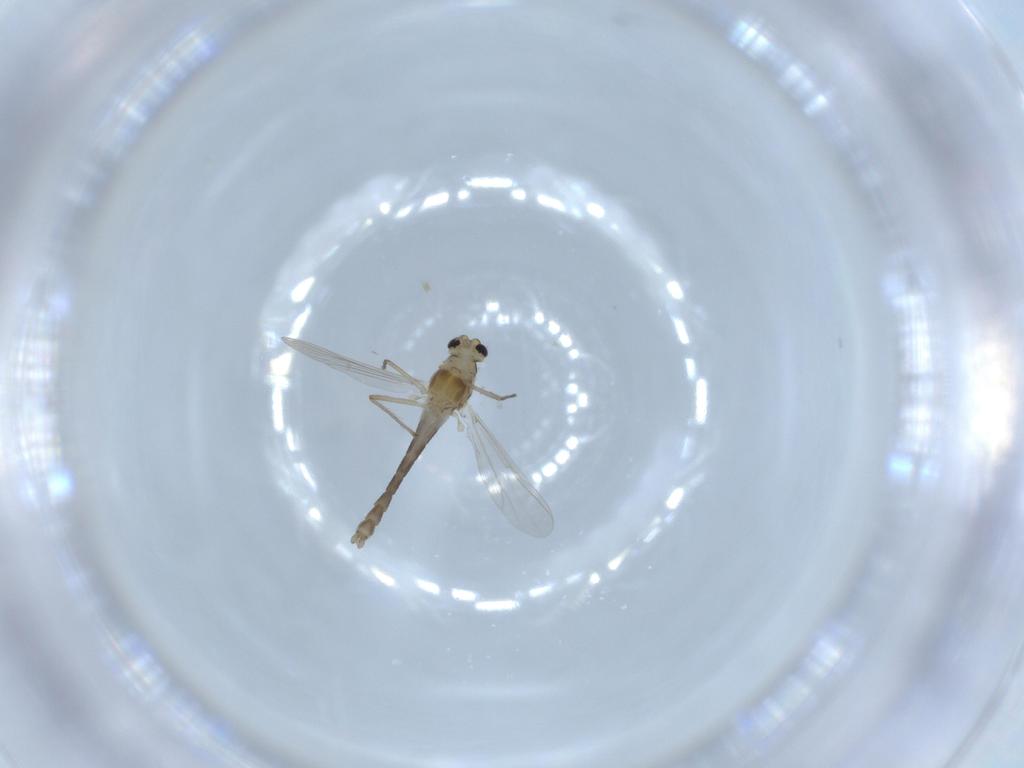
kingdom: Animalia
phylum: Arthropoda
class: Insecta
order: Diptera
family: Chironomidae
